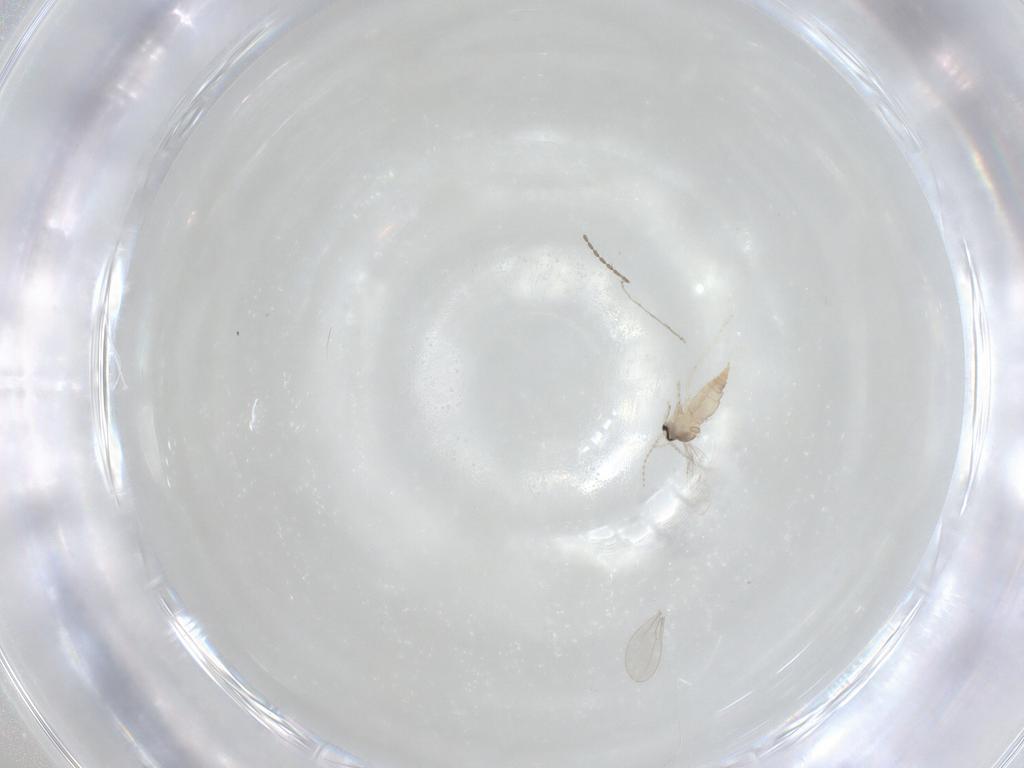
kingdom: Animalia
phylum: Arthropoda
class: Insecta
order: Diptera
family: Cecidomyiidae
